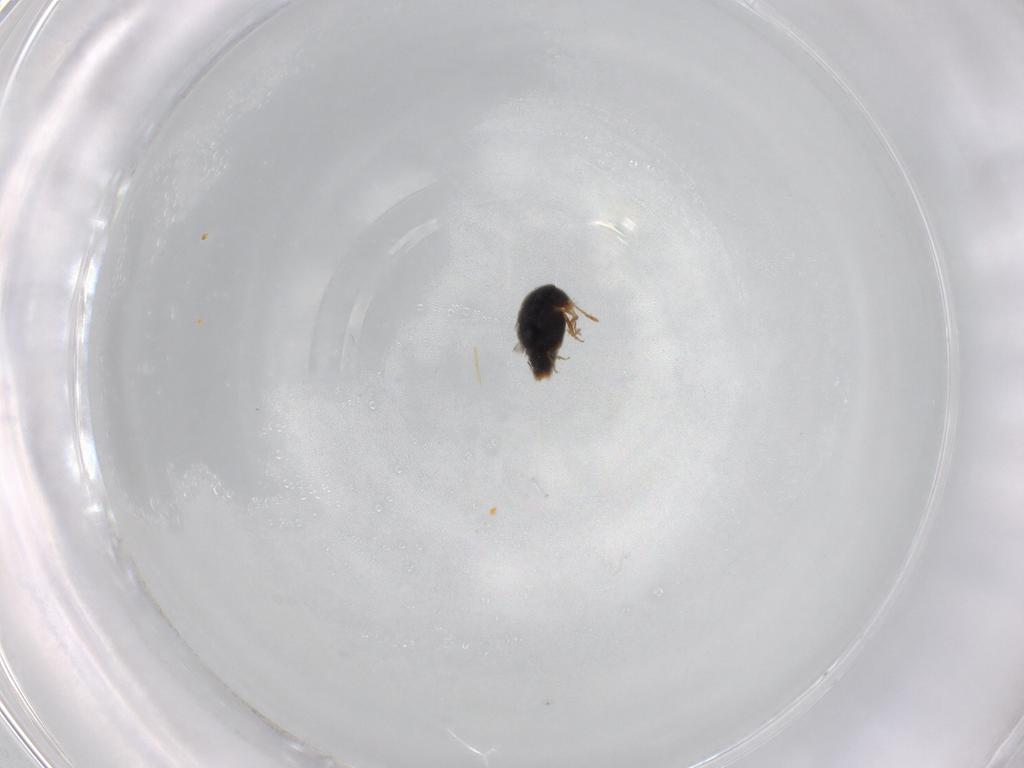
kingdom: Animalia
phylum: Arthropoda
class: Insecta
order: Coleoptera
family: Staphylinidae
